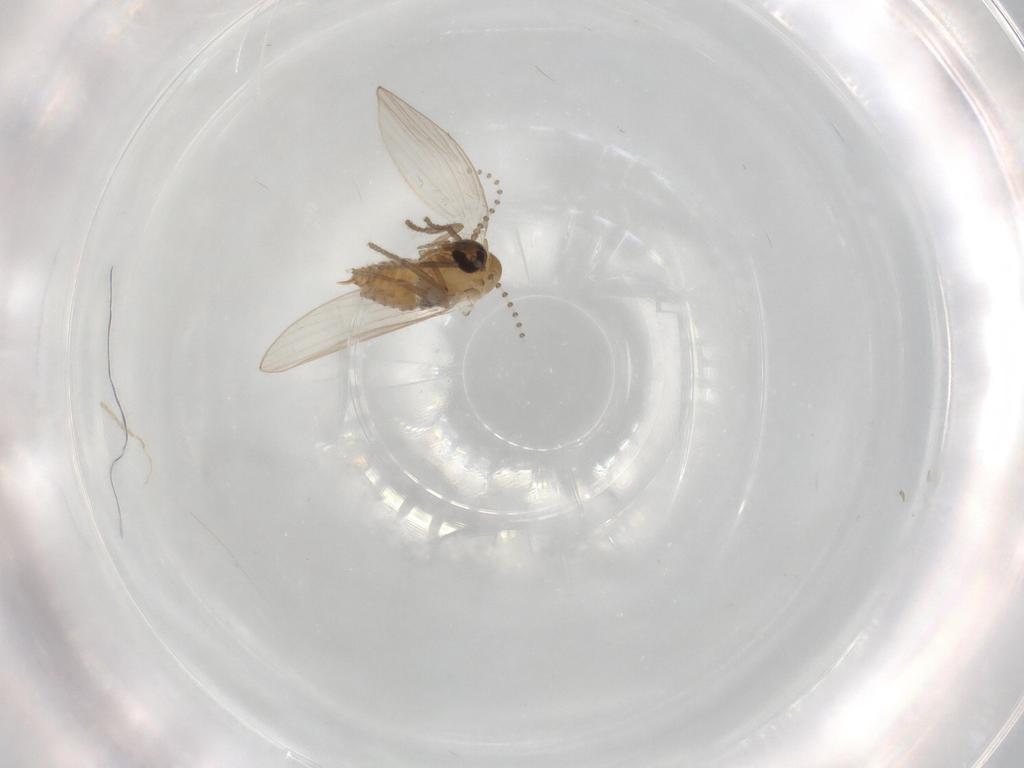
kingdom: Animalia
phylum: Arthropoda
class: Insecta
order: Diptera
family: Psychodidae
